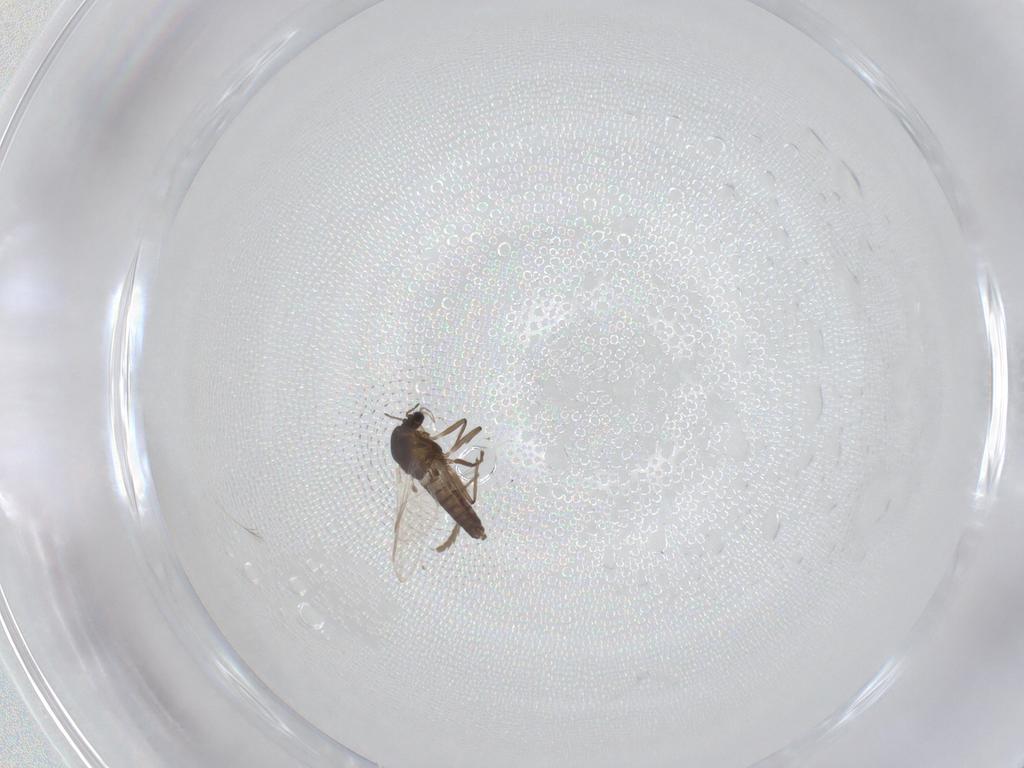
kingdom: Animalia
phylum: Arthropoda
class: Insecta
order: Diptera
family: Chironomidae
